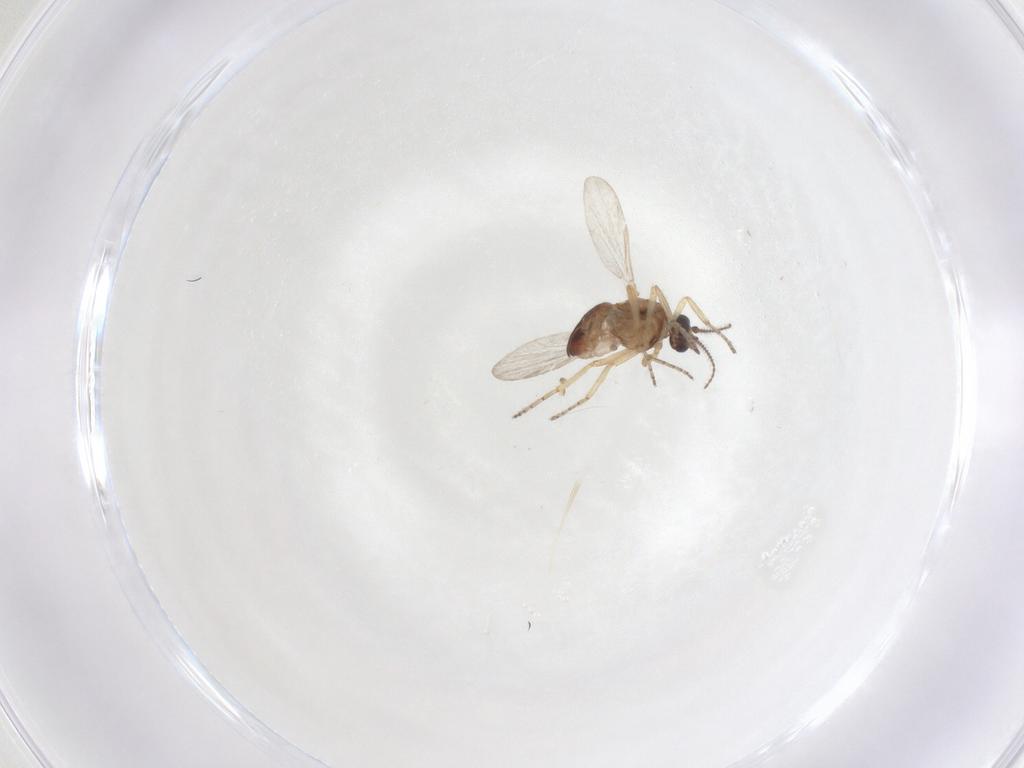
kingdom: Animalia
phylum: Arthropoda
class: Insecta
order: Diptera
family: Ceratopogonidae
